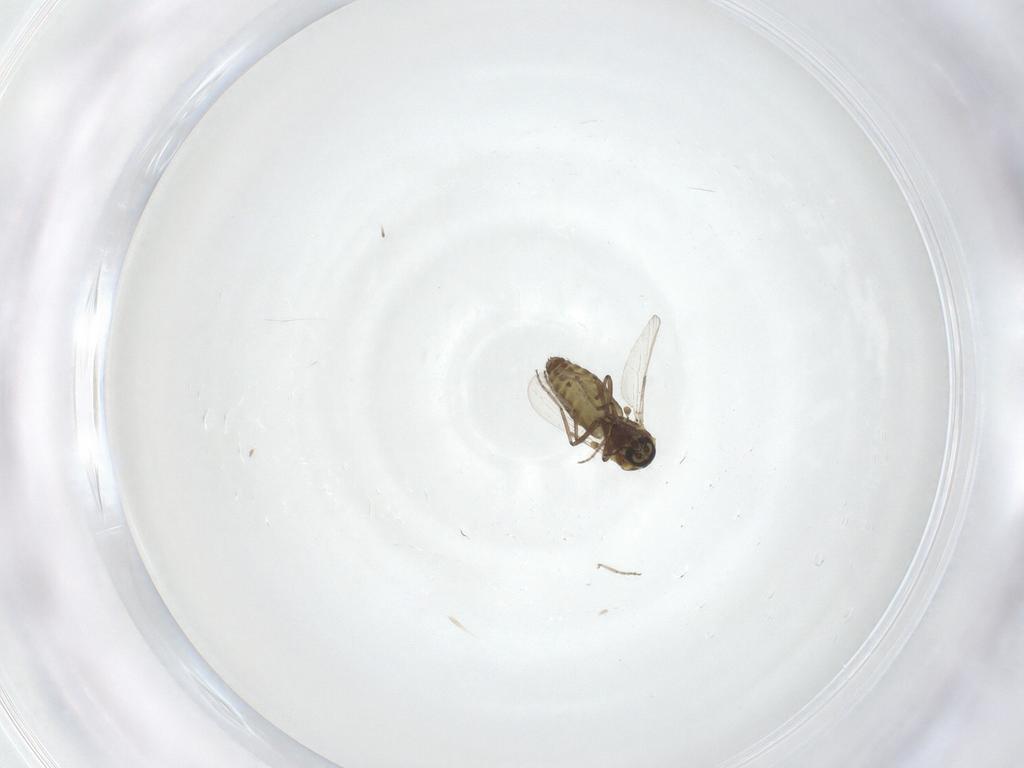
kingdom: Animalia
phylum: Arthropoda
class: Insecta
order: Diptera
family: Ceratopogonidae
